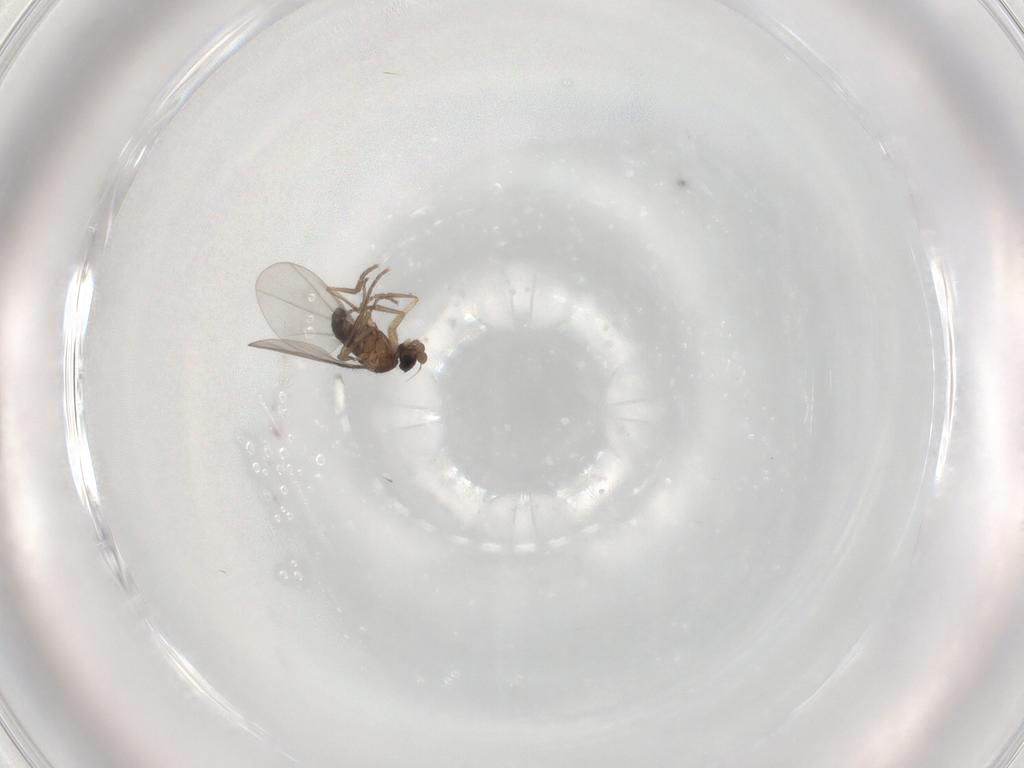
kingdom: Animalia
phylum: Arthropoda
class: Insecta
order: Diptera
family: Phoridae
